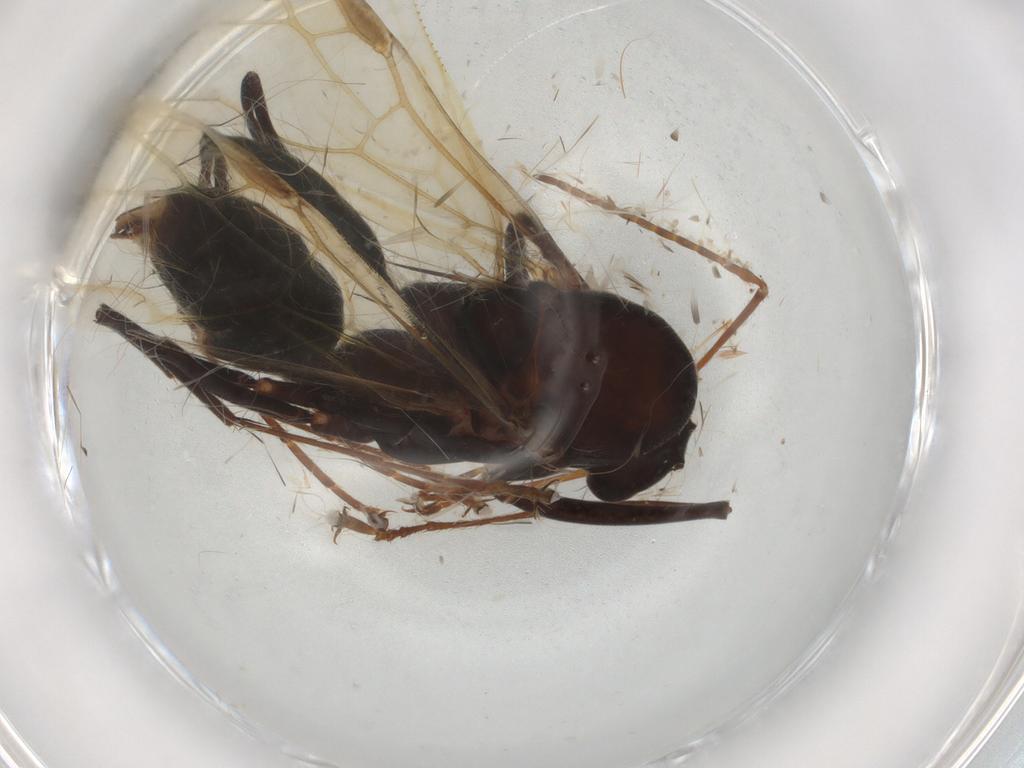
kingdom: Animalia
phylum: Arthropoda
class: Insecta
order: Hymenoptera
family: Formicidae
